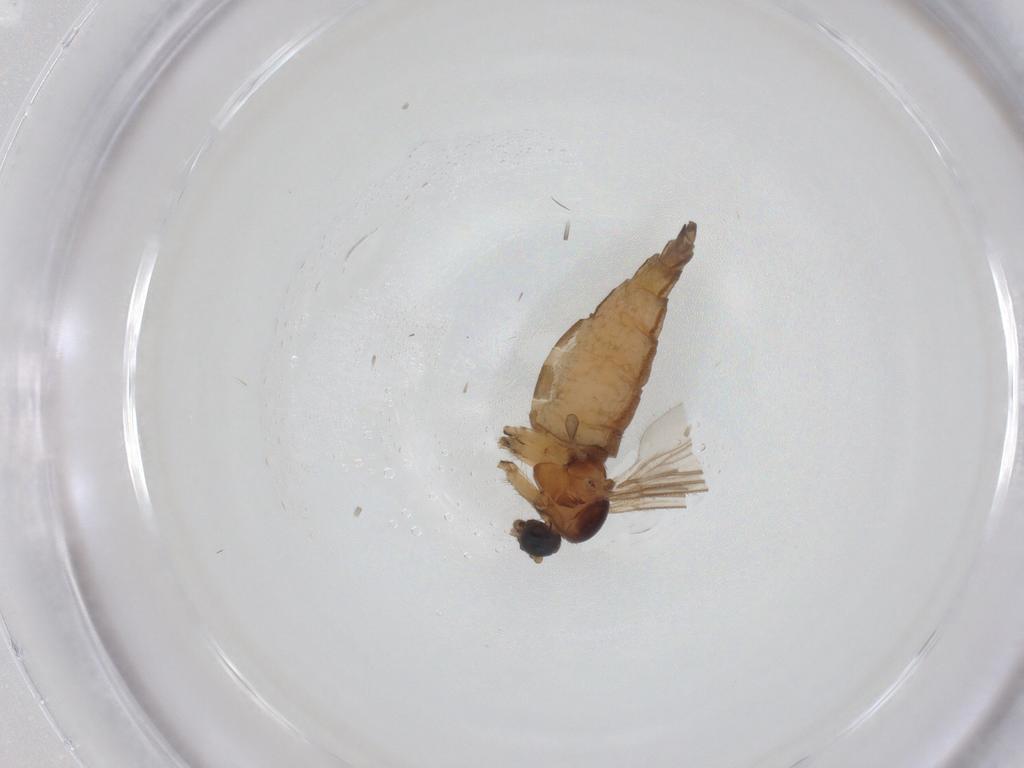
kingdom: Animalia
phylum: Arthropoda
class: Insecta
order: Diptera
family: Sciaridae
